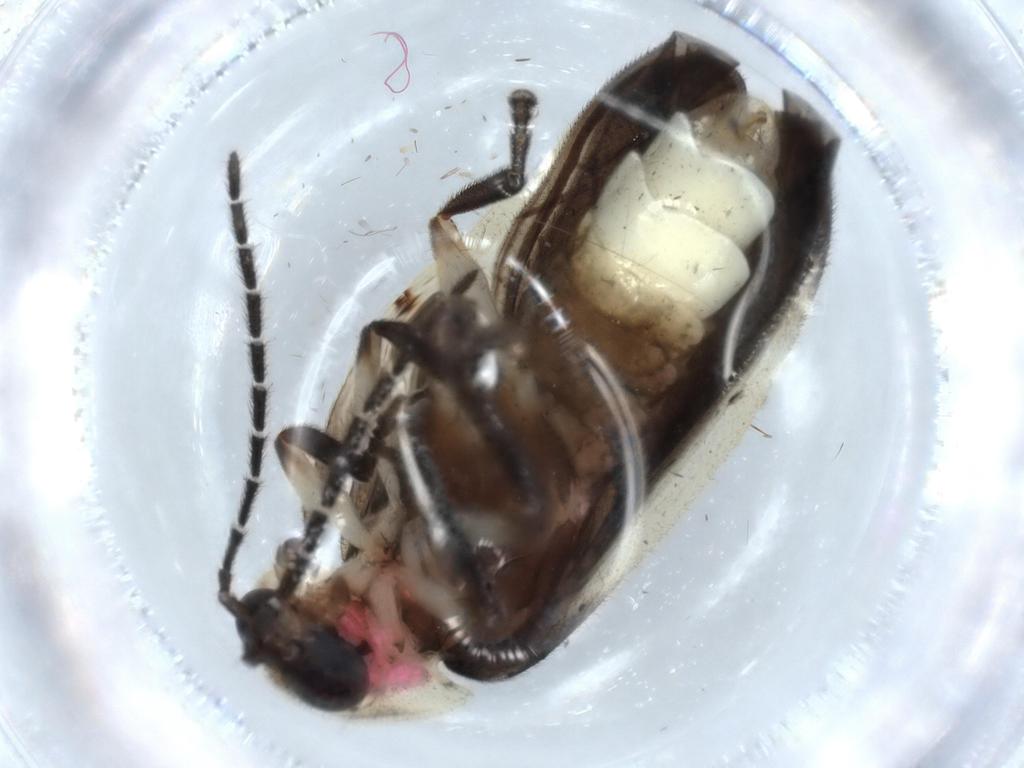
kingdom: Animalia
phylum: Arthropoda
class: Insecta
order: Coleoptera
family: Lampyridae
